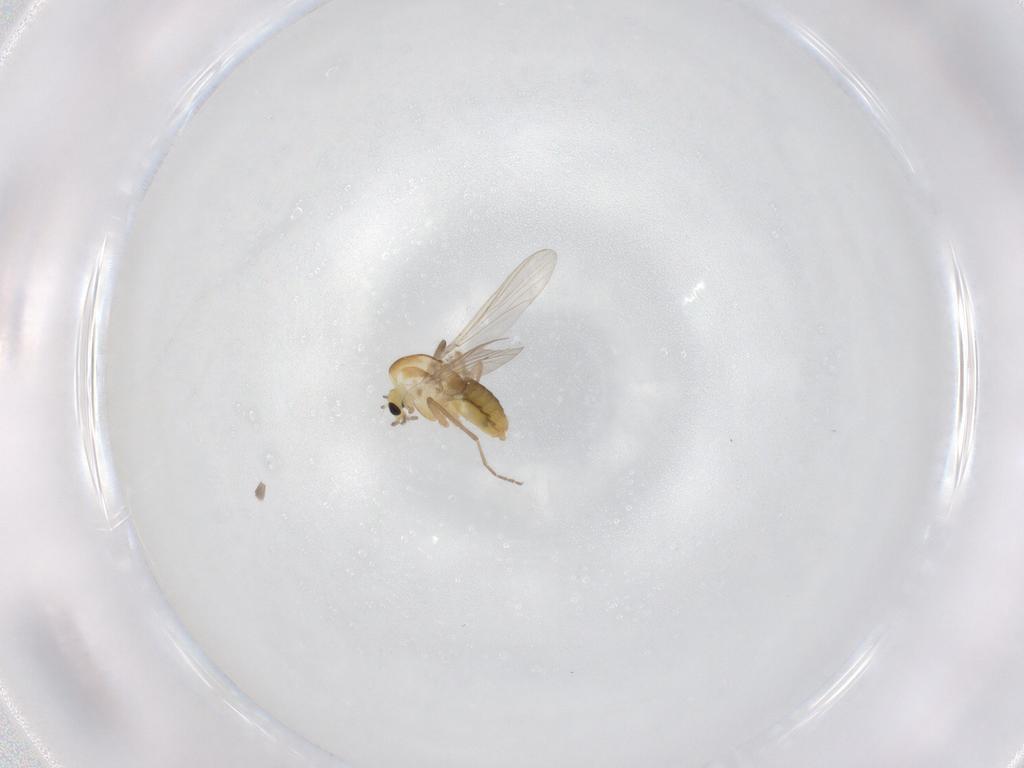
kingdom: Animalia
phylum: Arthropoda
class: Insecta
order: Diptera
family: Chironomidae
